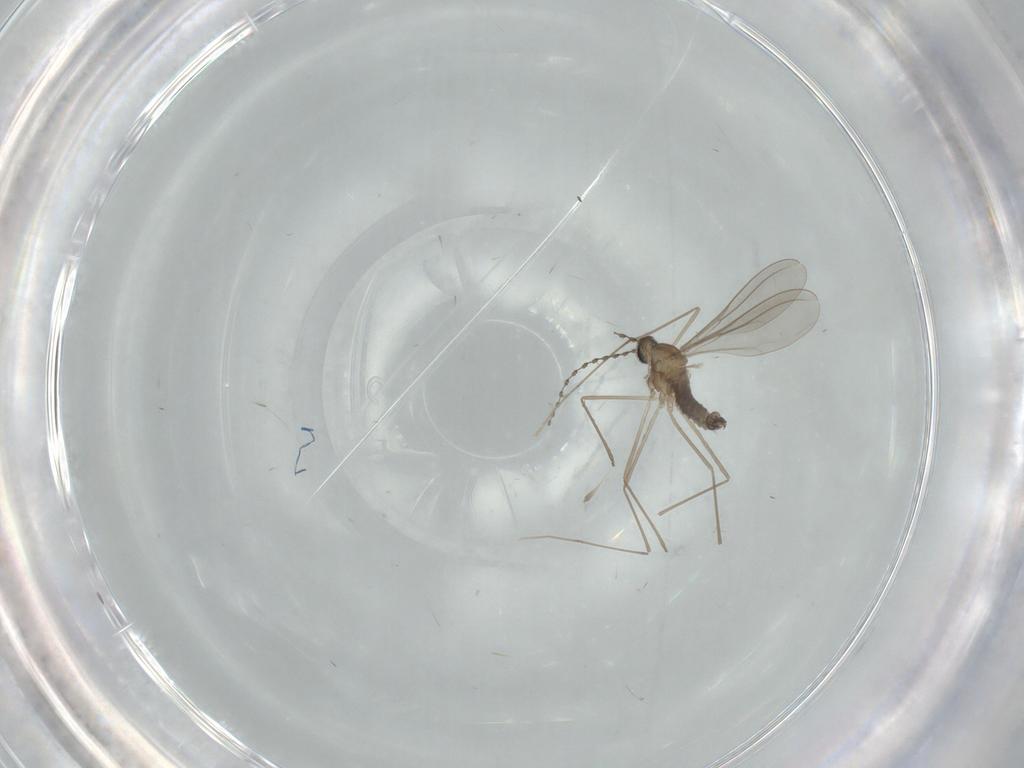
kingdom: Animalia
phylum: Arthropoda
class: Insecta
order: Diptera
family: Cecidomyiidae
